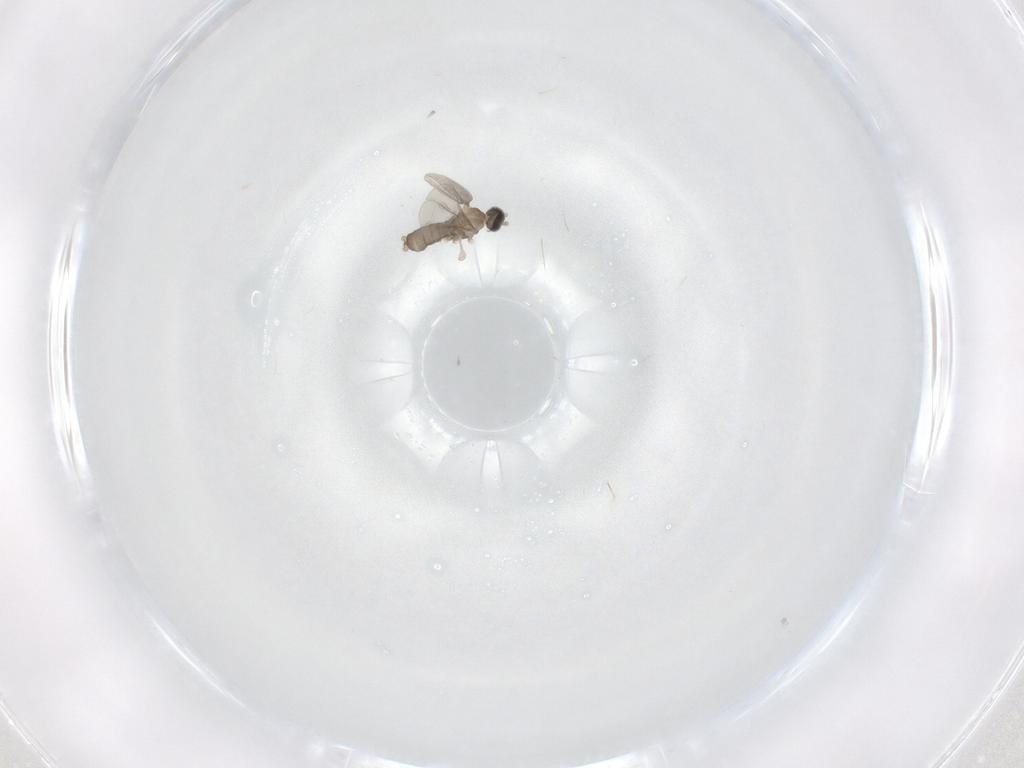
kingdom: Animalia
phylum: Arthropoda
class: Insecta
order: Diptera
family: Cecidomyiidae
